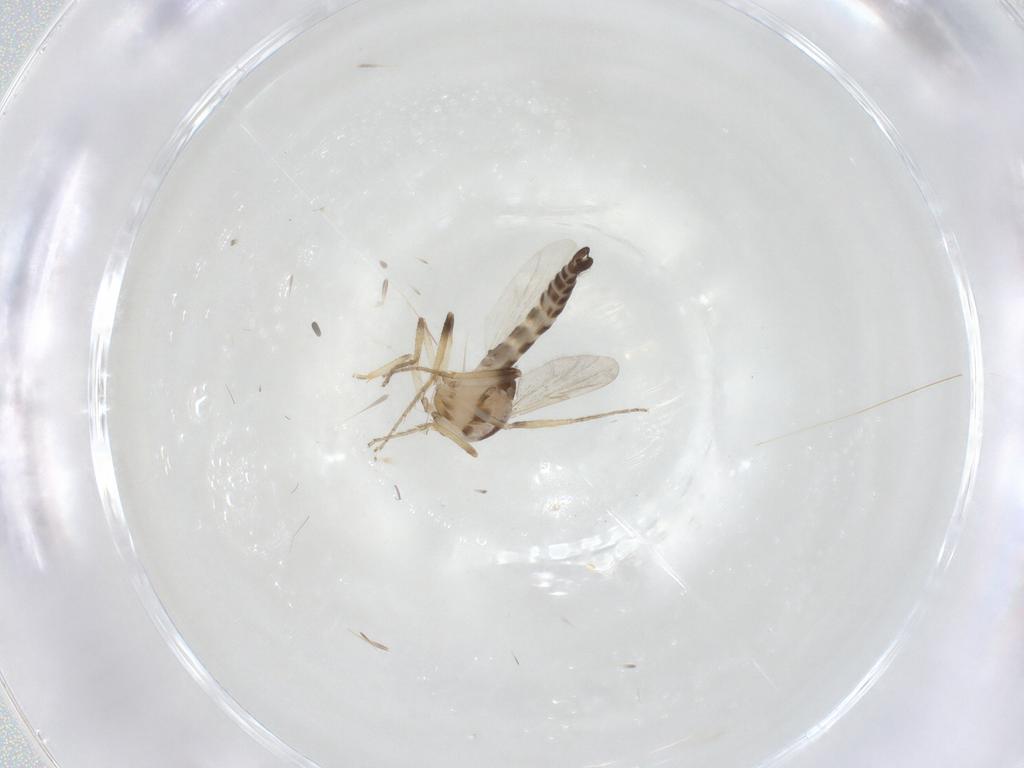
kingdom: Animalia
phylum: Arthropoda
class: Insecta
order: Diptera
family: Ceratopogonidae
